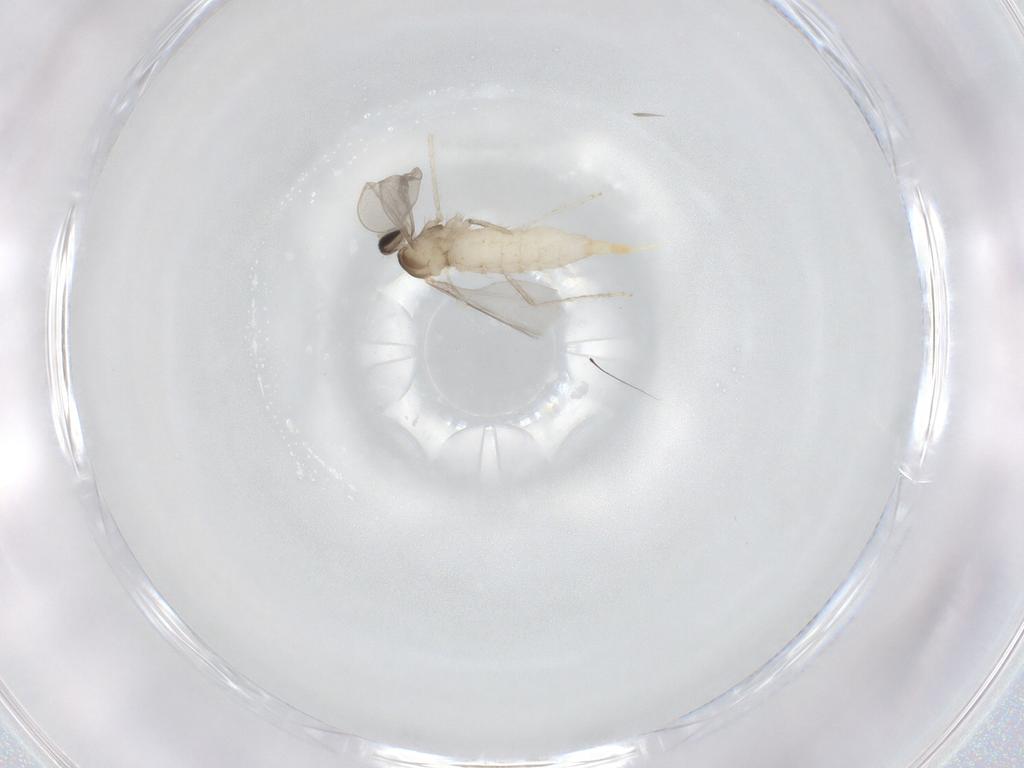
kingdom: Animalia
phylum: Arthropoda
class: Insecta
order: Diptera
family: Cecidomyiidae
